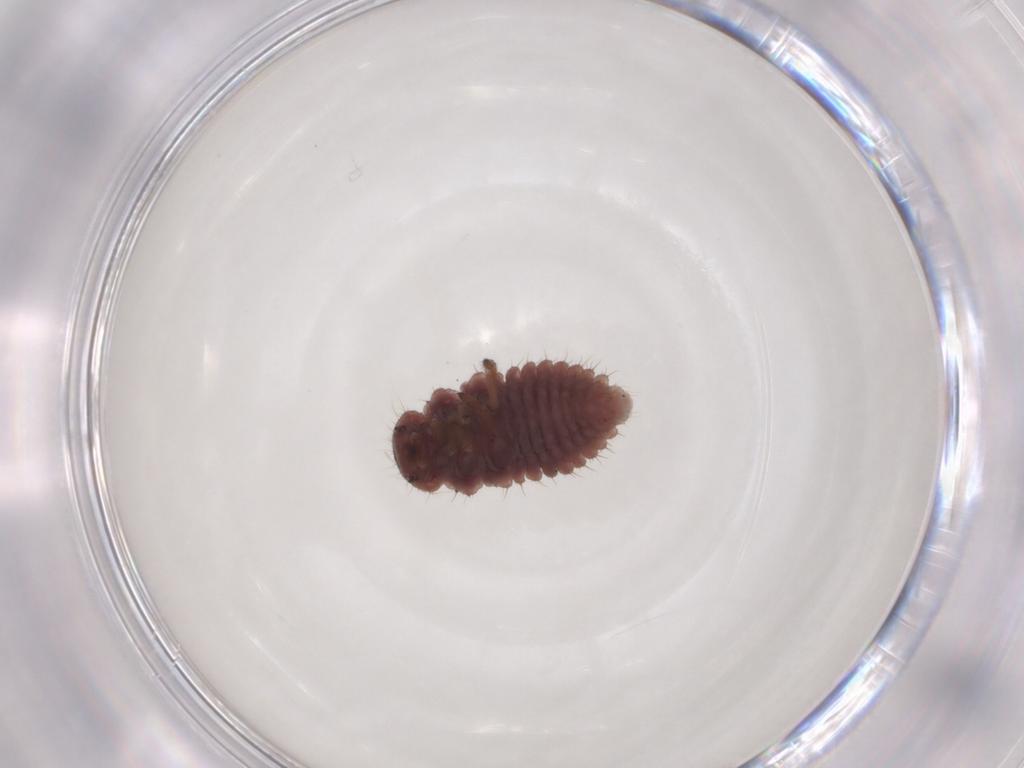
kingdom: Animalia
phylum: Arthropoda
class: Insecta
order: Coleoptera
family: Coccinellidae
